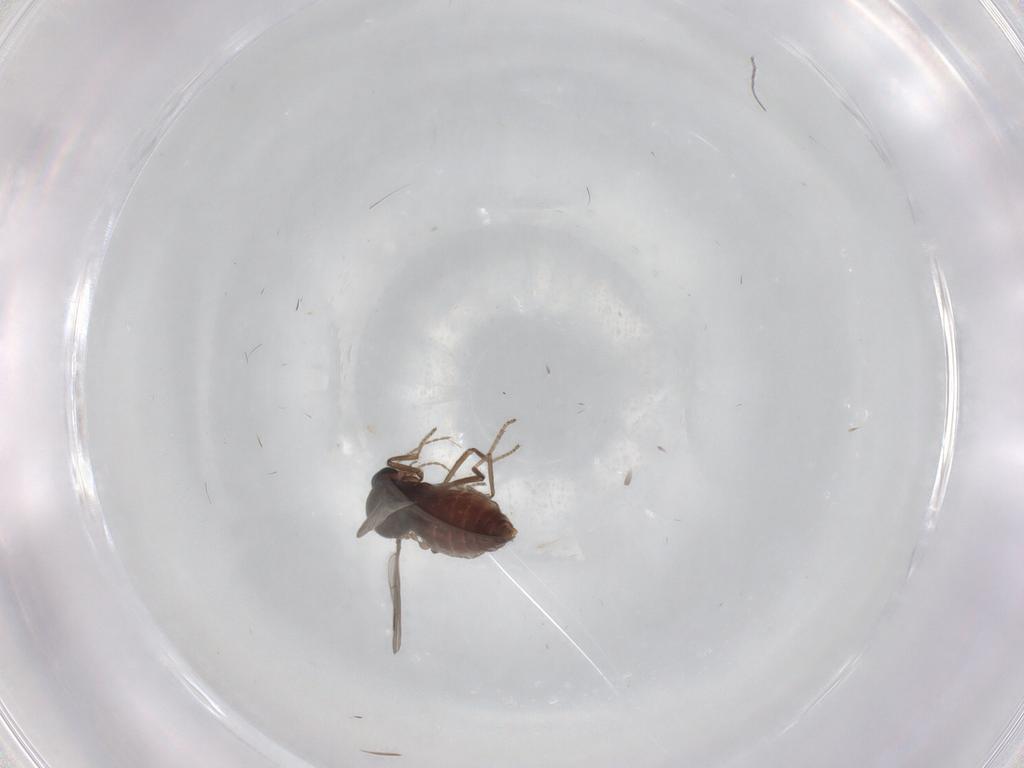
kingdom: Animalia
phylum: Arthropoda
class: Insecta
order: Diptera
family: Psychodidae
